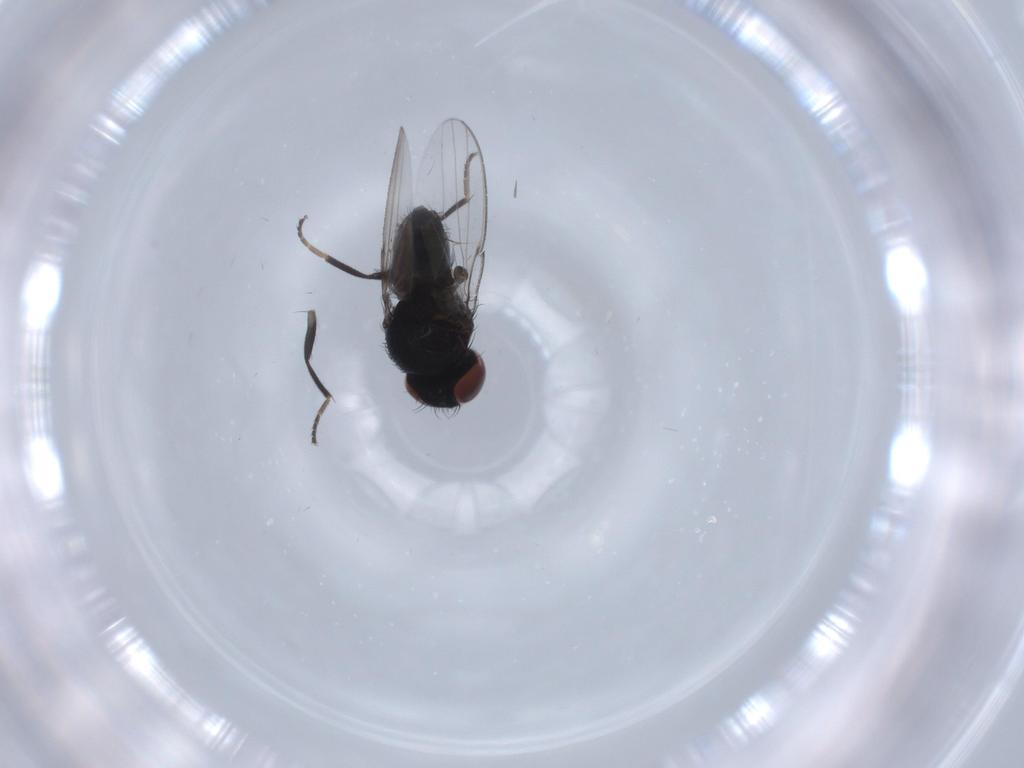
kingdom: Animalia
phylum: Arthropoda
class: Insecta
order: Diptera
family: Milichiidae
